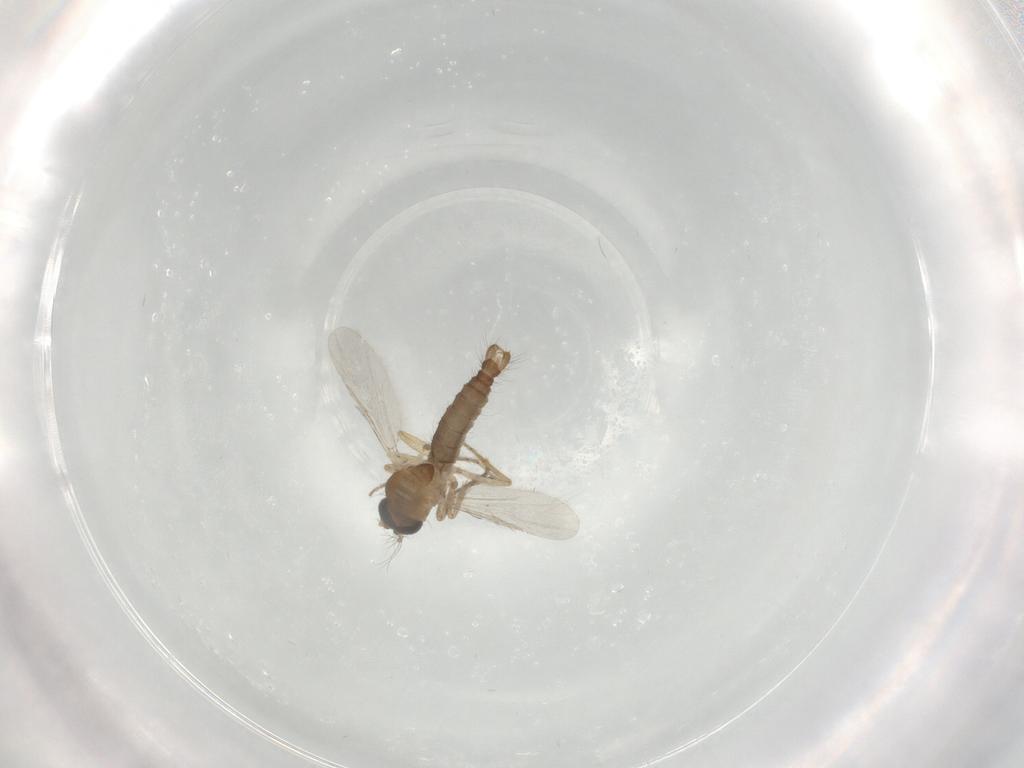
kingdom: Animalia
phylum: Arthropoda
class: Insecta
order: Diptera
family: Ceratopogonidae
